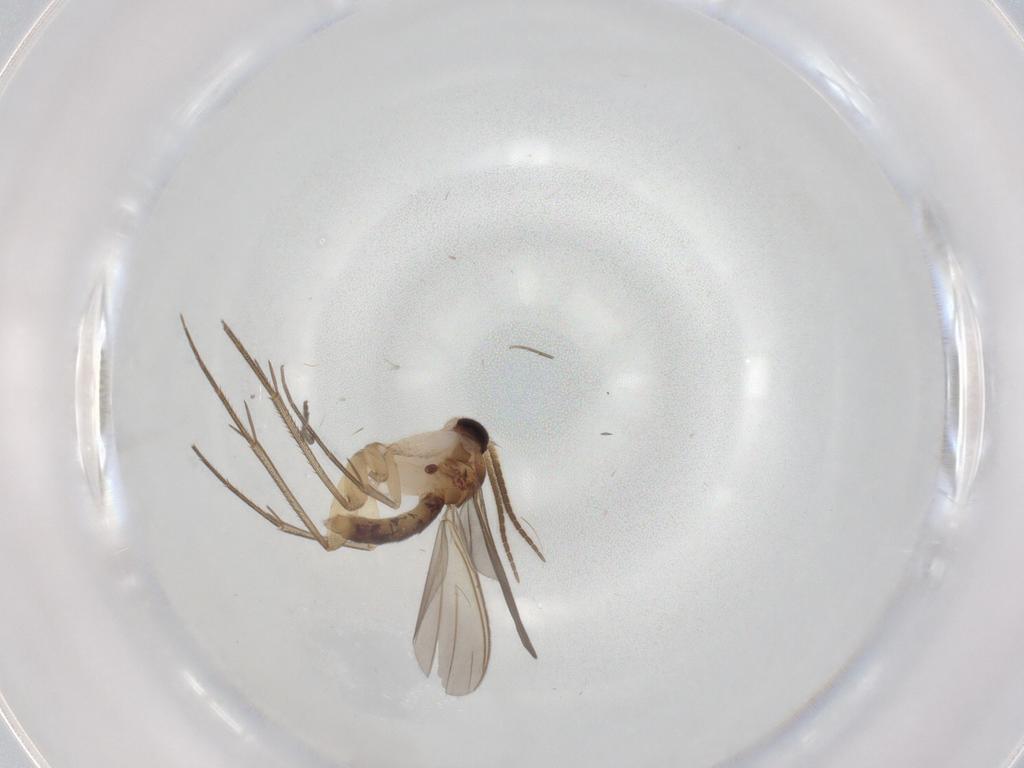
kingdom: Animalia
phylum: Arthropoda
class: Insecta
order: Diptera
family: Mycetophilidae
